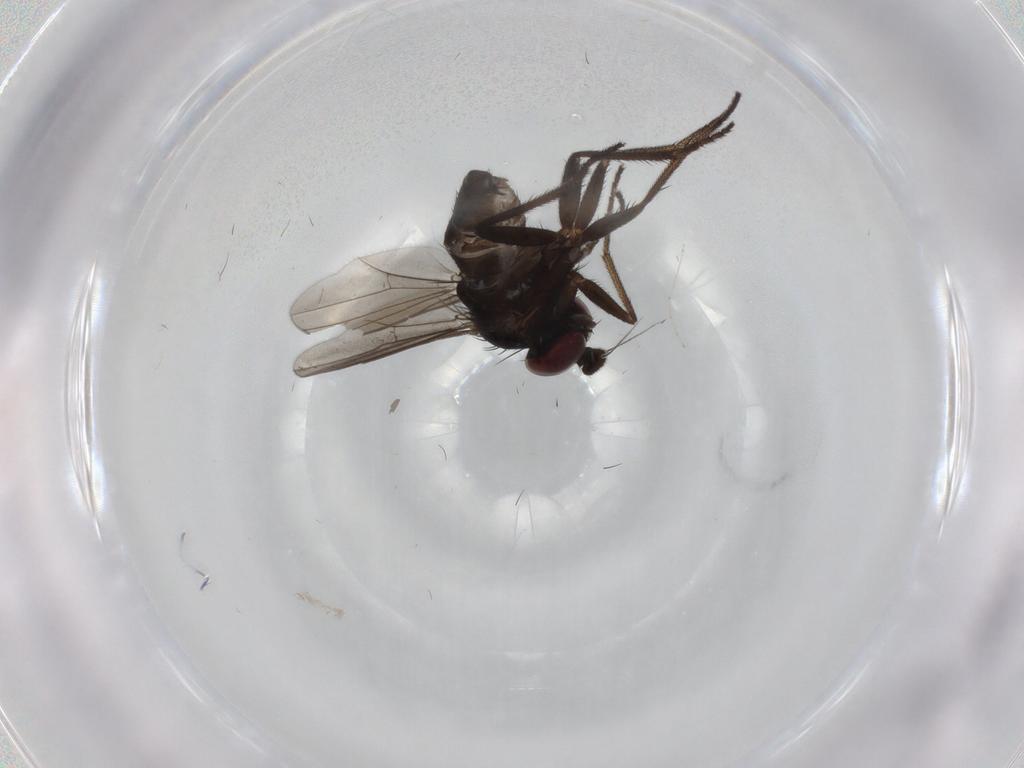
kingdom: Animalia
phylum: Arthropoda
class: Insecta
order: Diptera
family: Dolichopodidae
